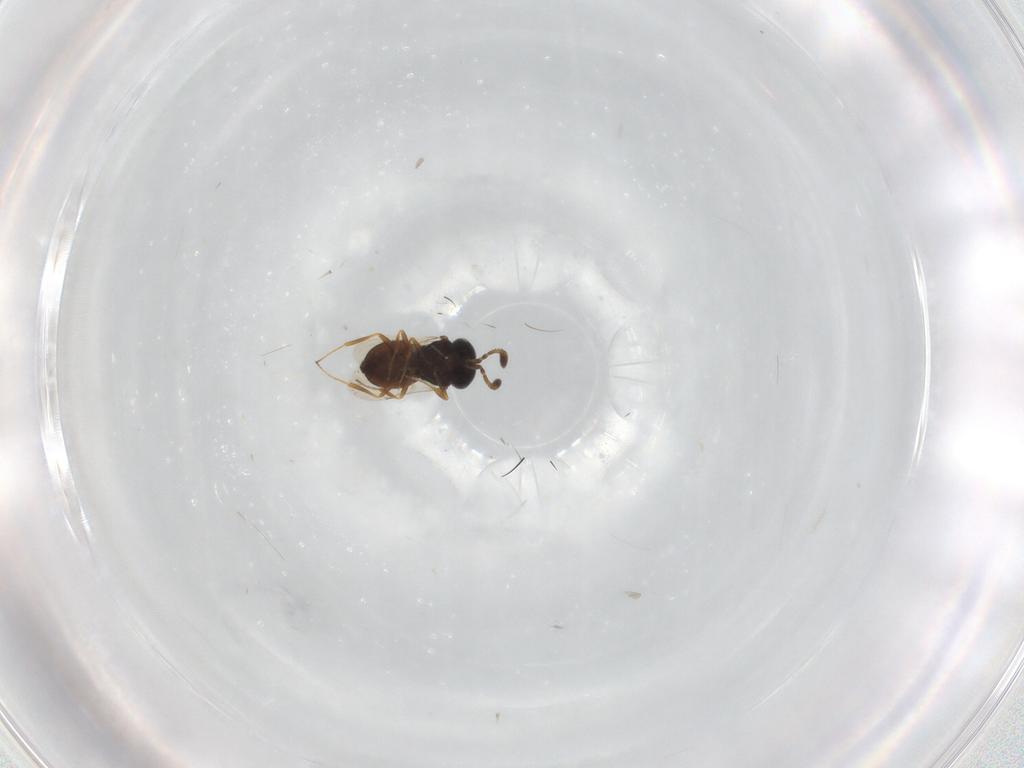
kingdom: Animalia
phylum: Arthropoda
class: Insecta
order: Hymenoptera
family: Scelionidae
